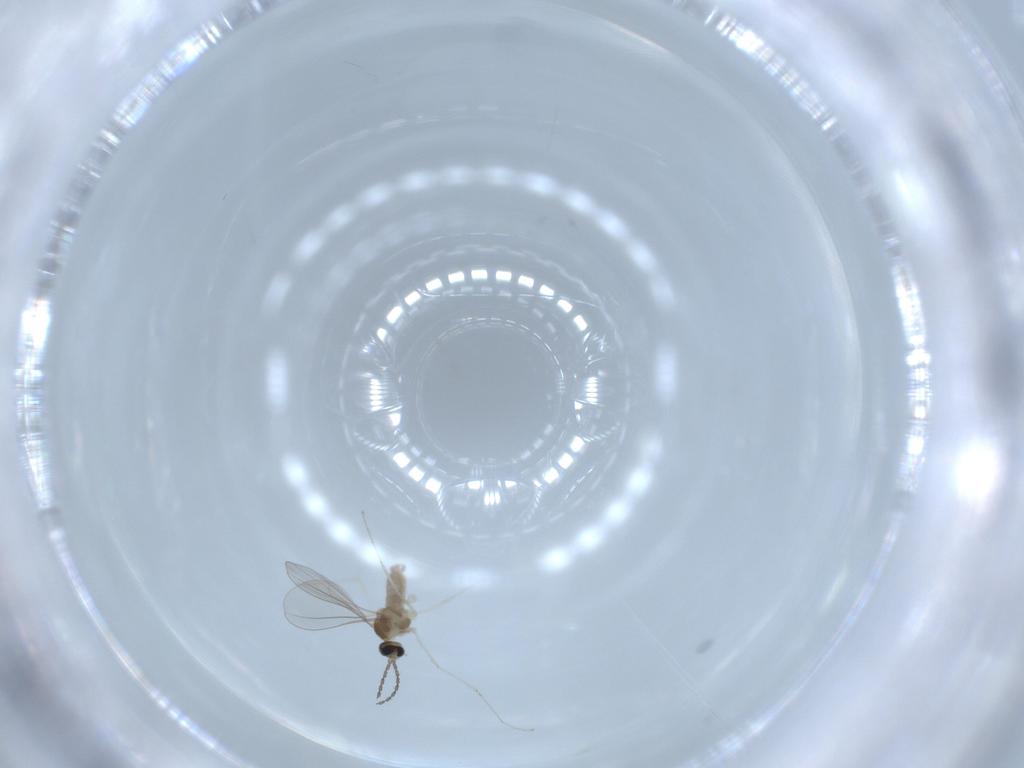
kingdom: Animalia
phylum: Arthropoda
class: Insecta
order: Diptera
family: Chironomidae
